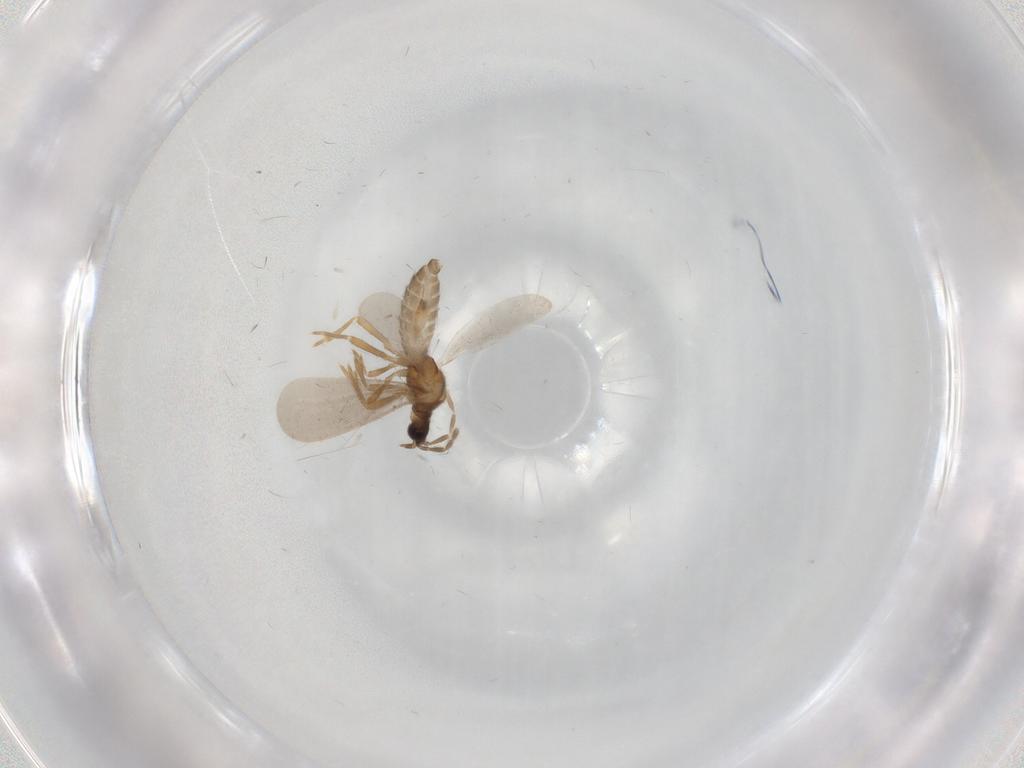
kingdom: Animalia
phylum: Arthropoda
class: Insecta
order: Hemiptera
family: Enicocephalidae
